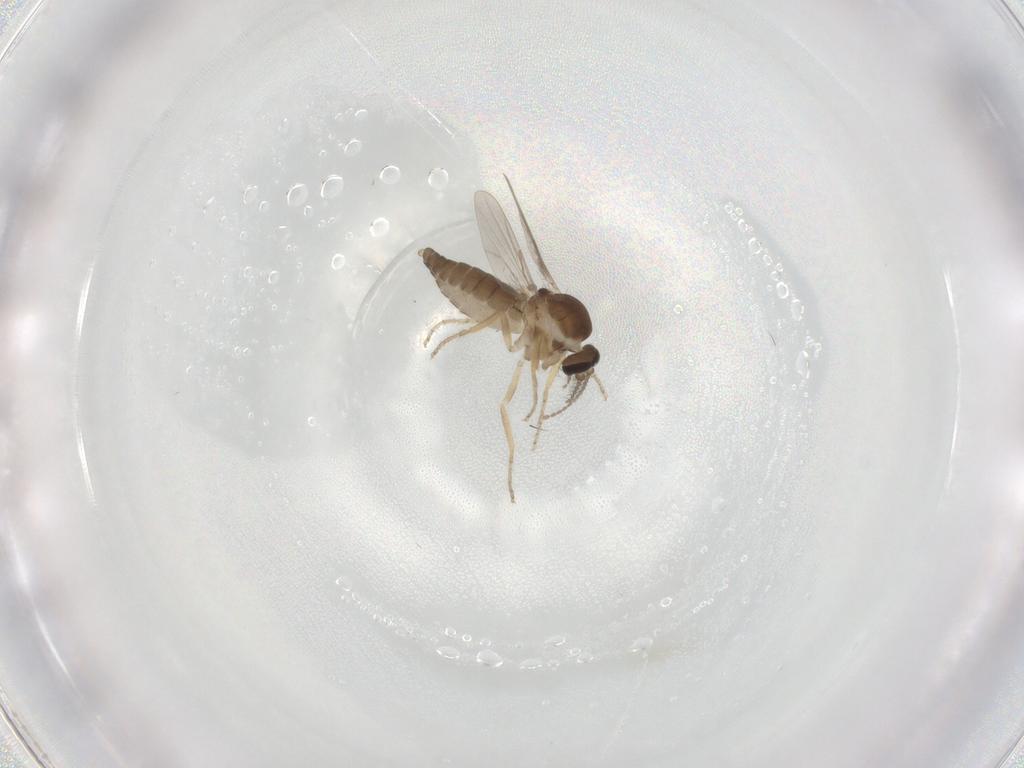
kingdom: Animalia
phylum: Arthropoda
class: Insecta
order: Diptera
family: Ceratopogonidae
